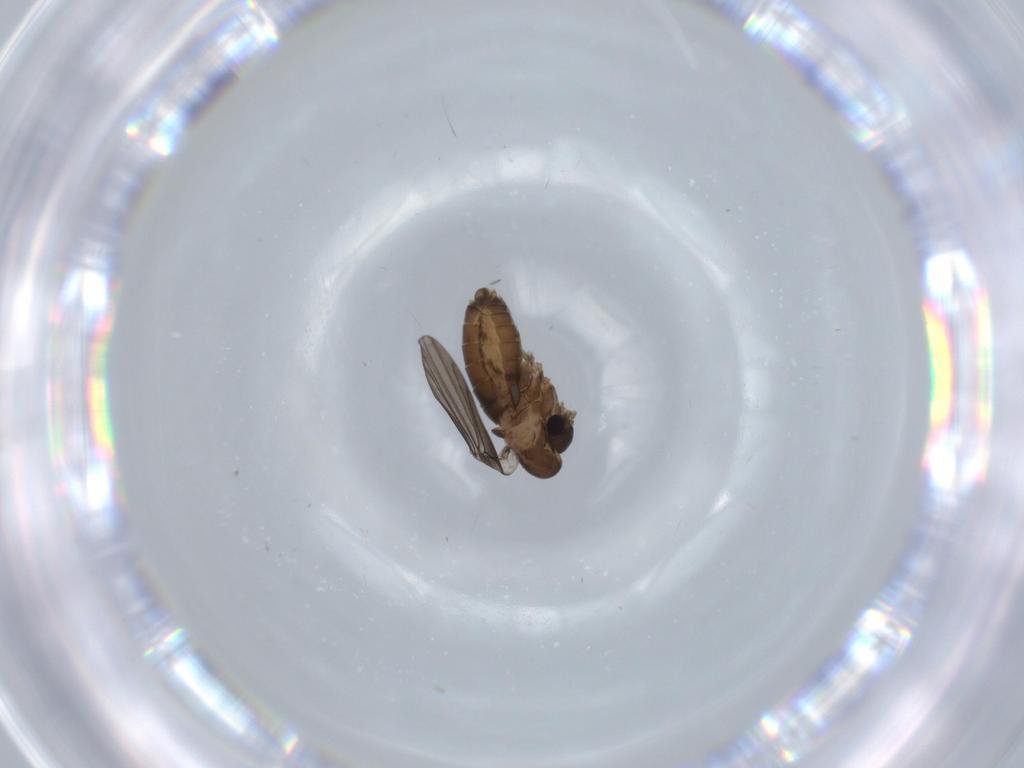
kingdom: Animalia
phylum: Arthropoda
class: Insecta
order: Diptera
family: Psychodidae
